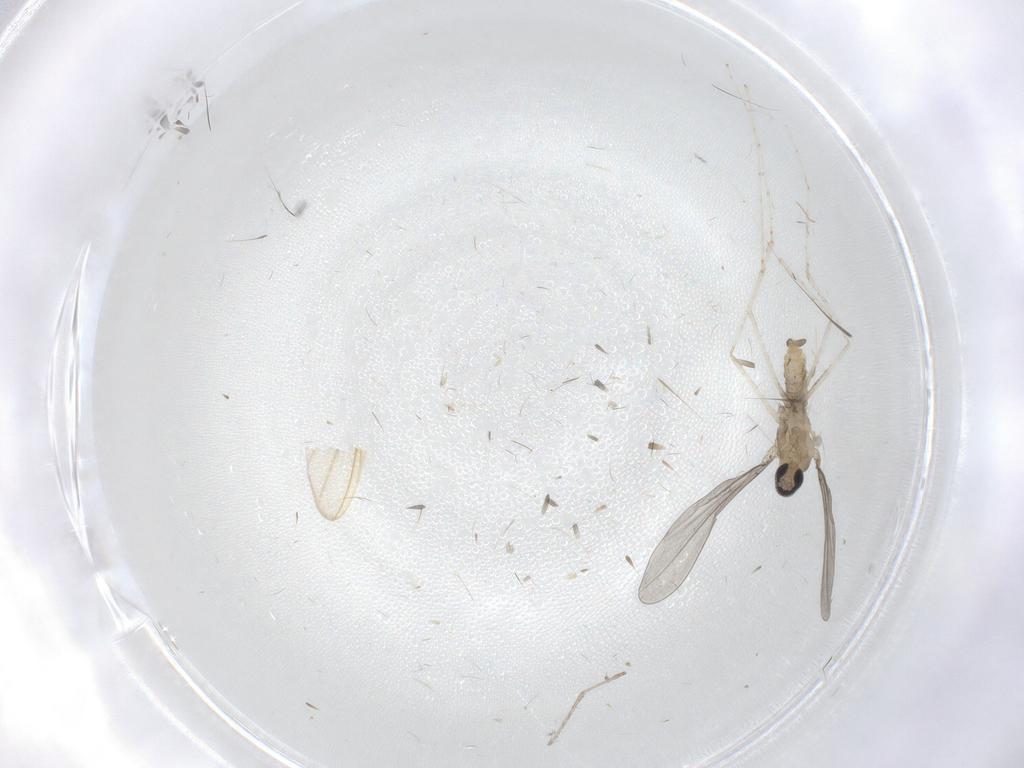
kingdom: Animalia
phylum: Arthropoda
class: Insecta
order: Diptera
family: Cecidomyiidae
